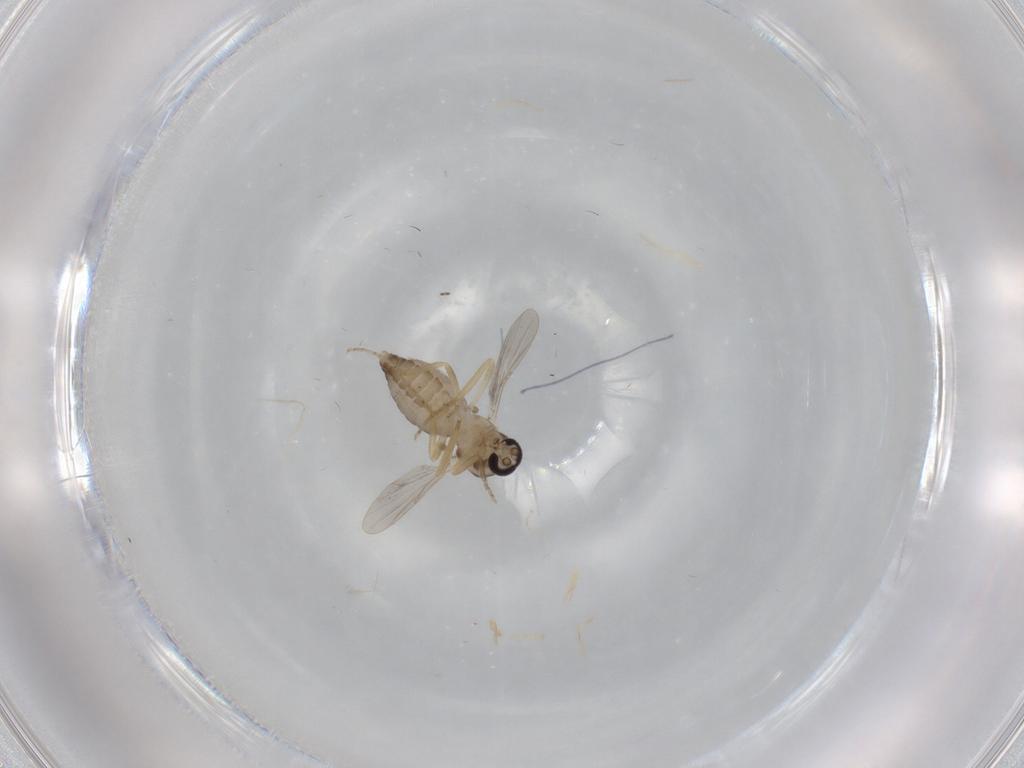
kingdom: Animalia
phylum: Arthropoda
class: Insecta
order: Diptera
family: Ceratopogonidae
